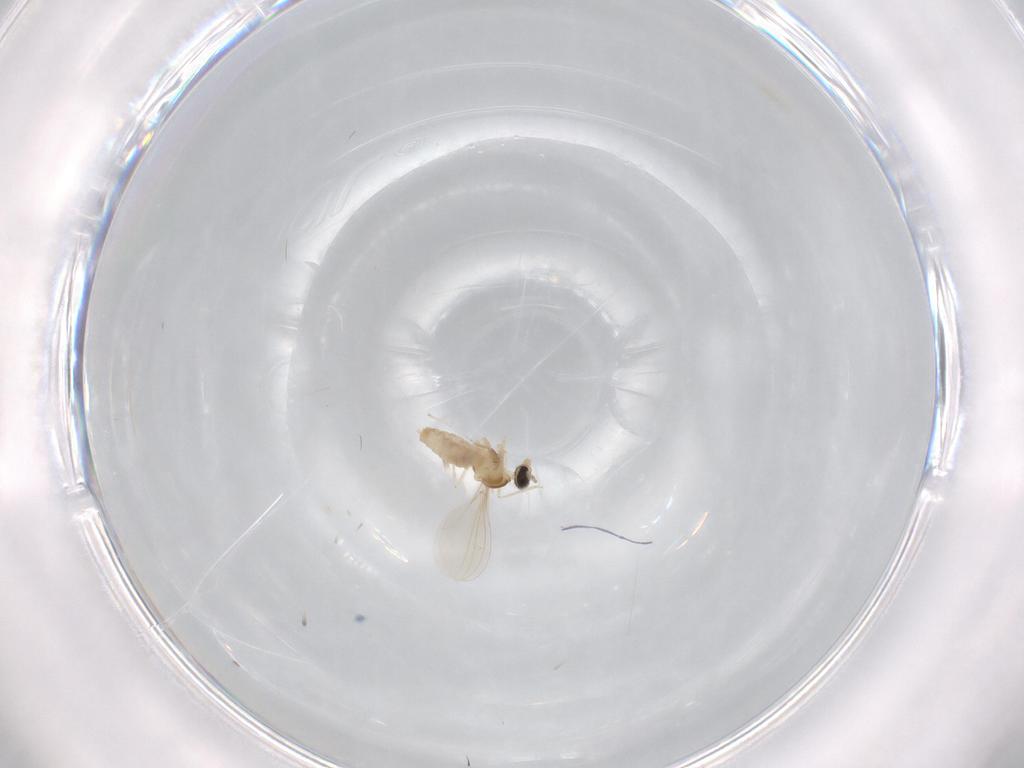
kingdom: Animalia
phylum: Arthropoda
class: Insecta
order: Diptera
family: Cecidomyiidae
